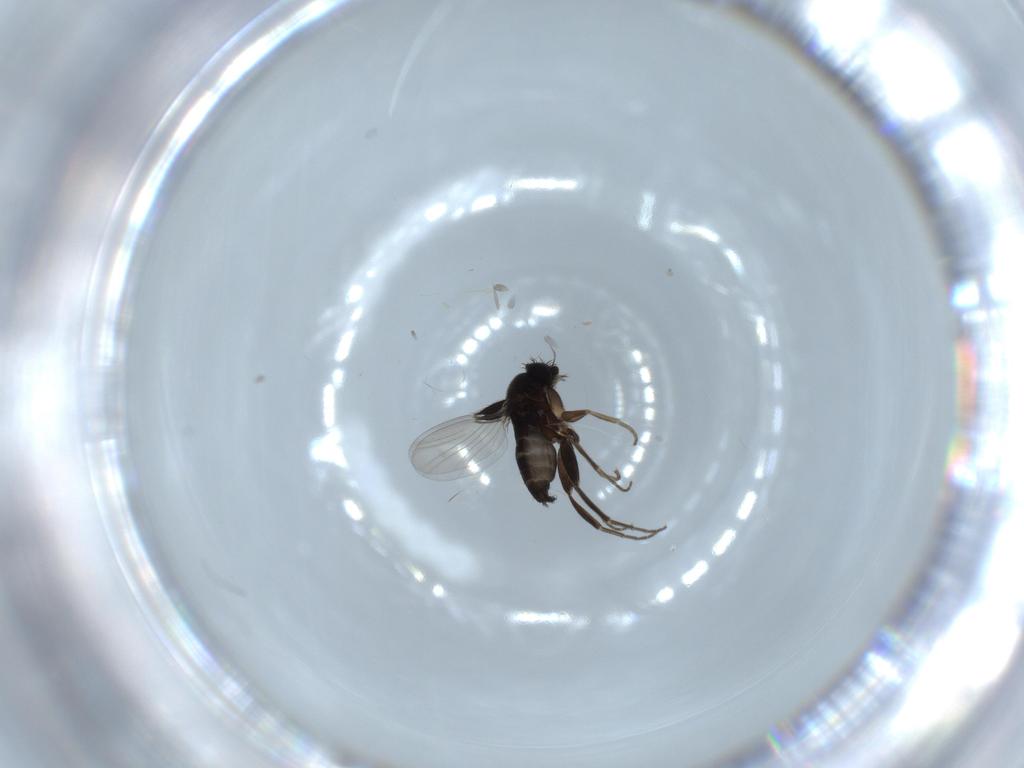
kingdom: Animalia
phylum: Arthropoda
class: Insecta
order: Diptera
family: Phoridae
